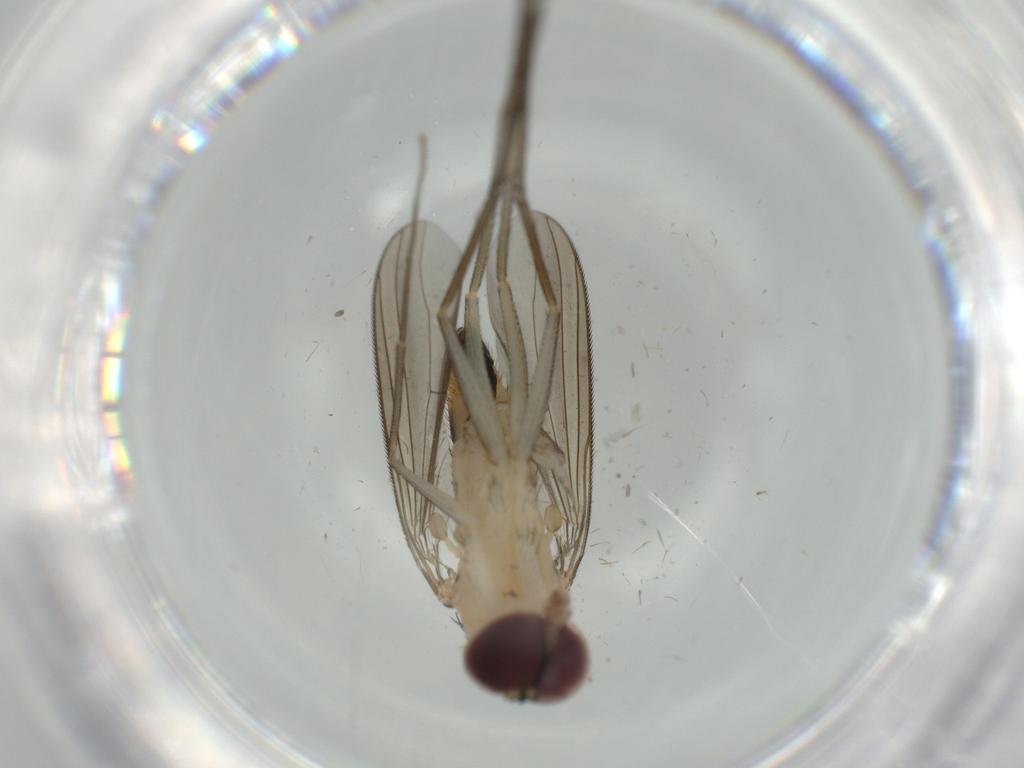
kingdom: Animalia
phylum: Arthropoda
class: Insecta
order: Diptera
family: Dolichopodidae
